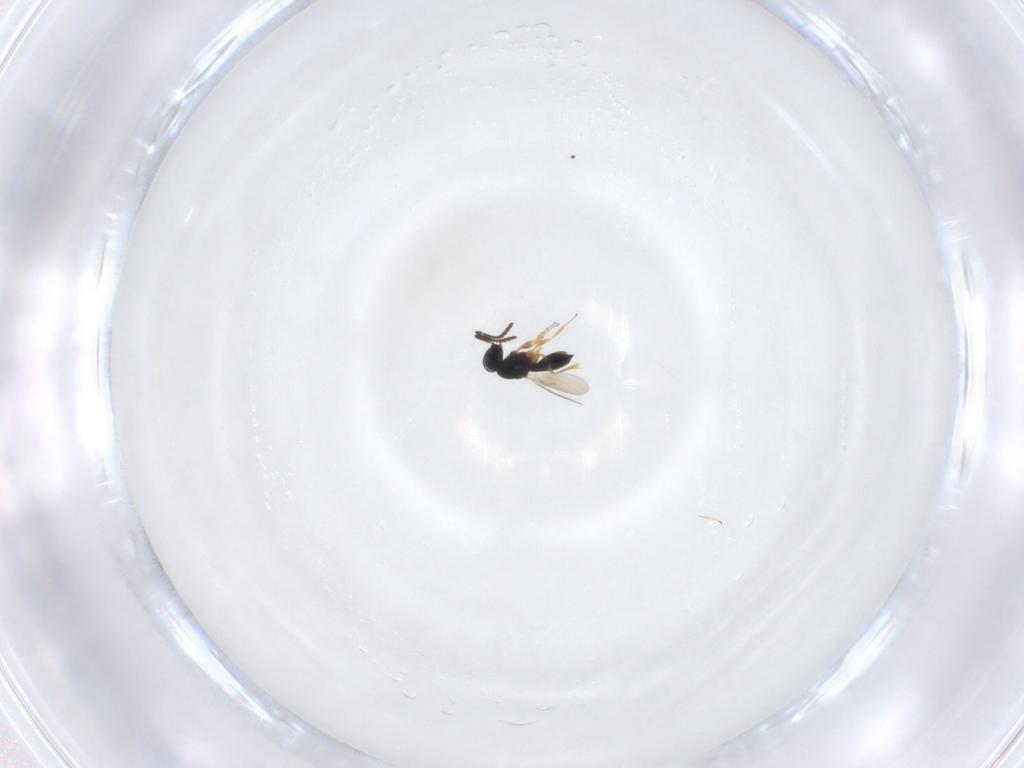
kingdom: Animalia
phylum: Arthropoda
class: Insecta
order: Hymenoptera
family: Scelionidae
